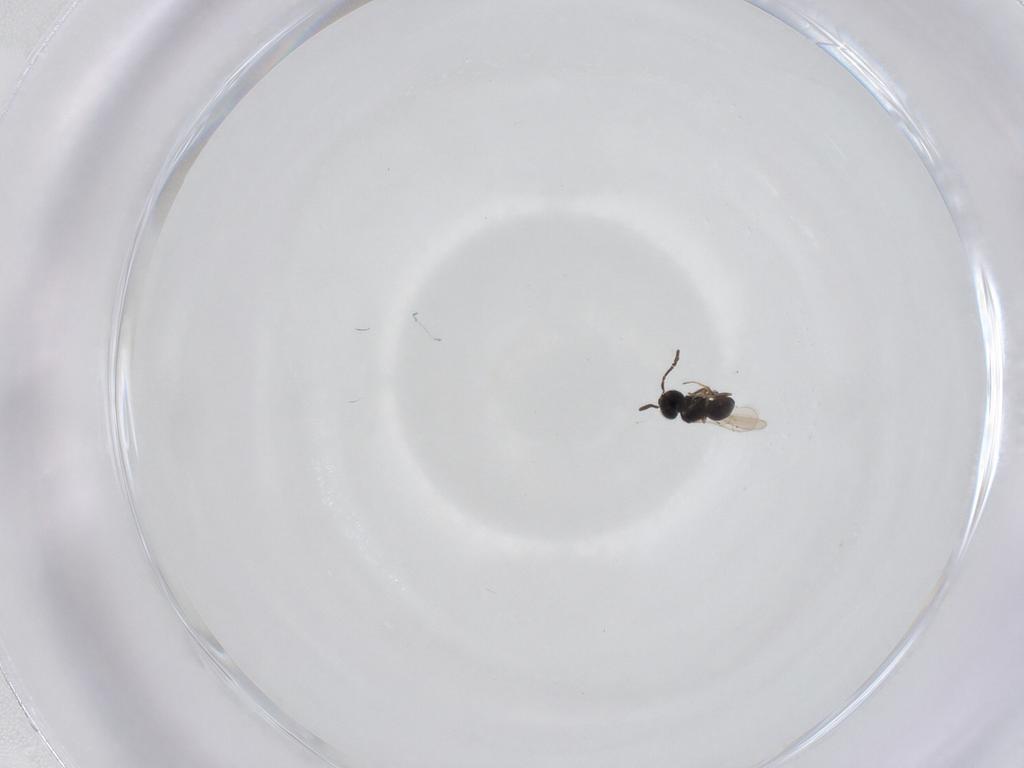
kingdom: Animalia
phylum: Arthropoda
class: Insecta
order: Hymenoptera
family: Scelionidae
